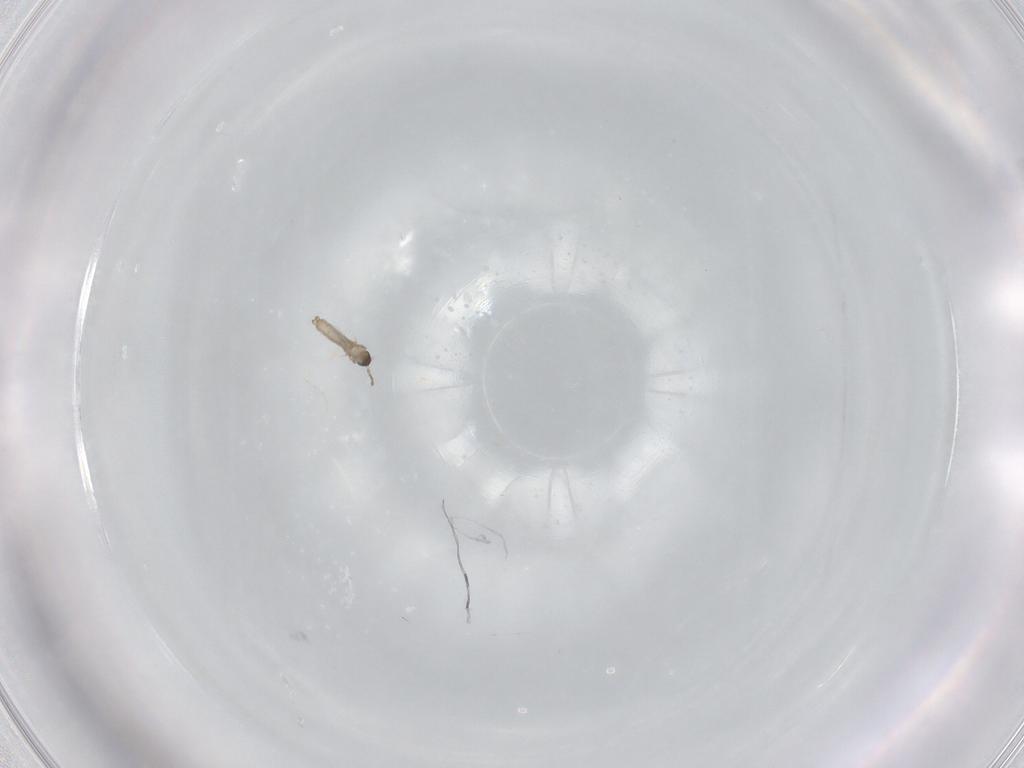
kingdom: Animalia
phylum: Arthropoda
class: Insecta
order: Diptera
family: Cecidomyiidae
